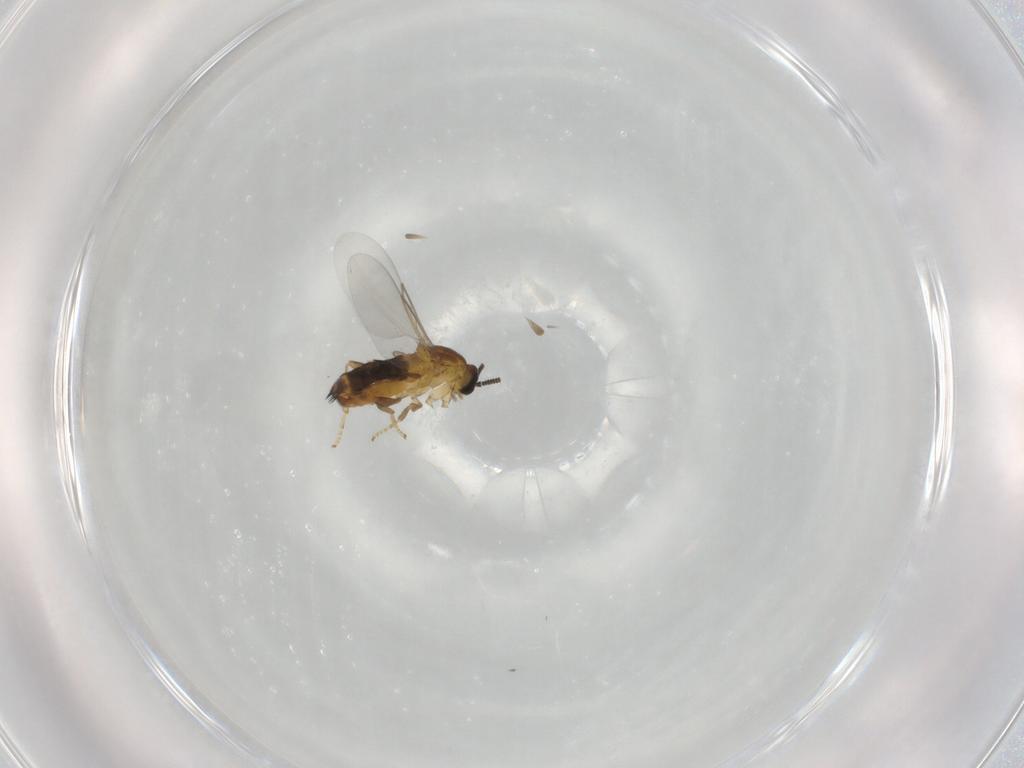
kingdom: Animalia
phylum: Arthropoda
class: Insecta
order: Diptera
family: Scatopsidae
